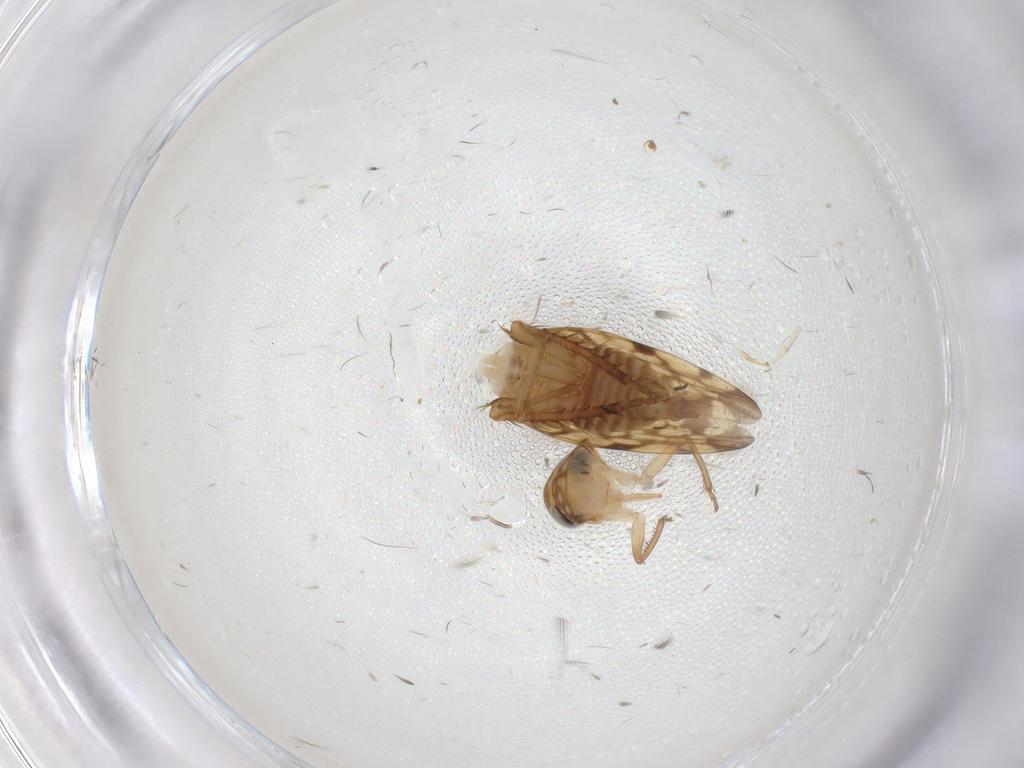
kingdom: Animalia
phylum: Arthropoda
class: Insecta
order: Hemiptera
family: Cicadellidae
